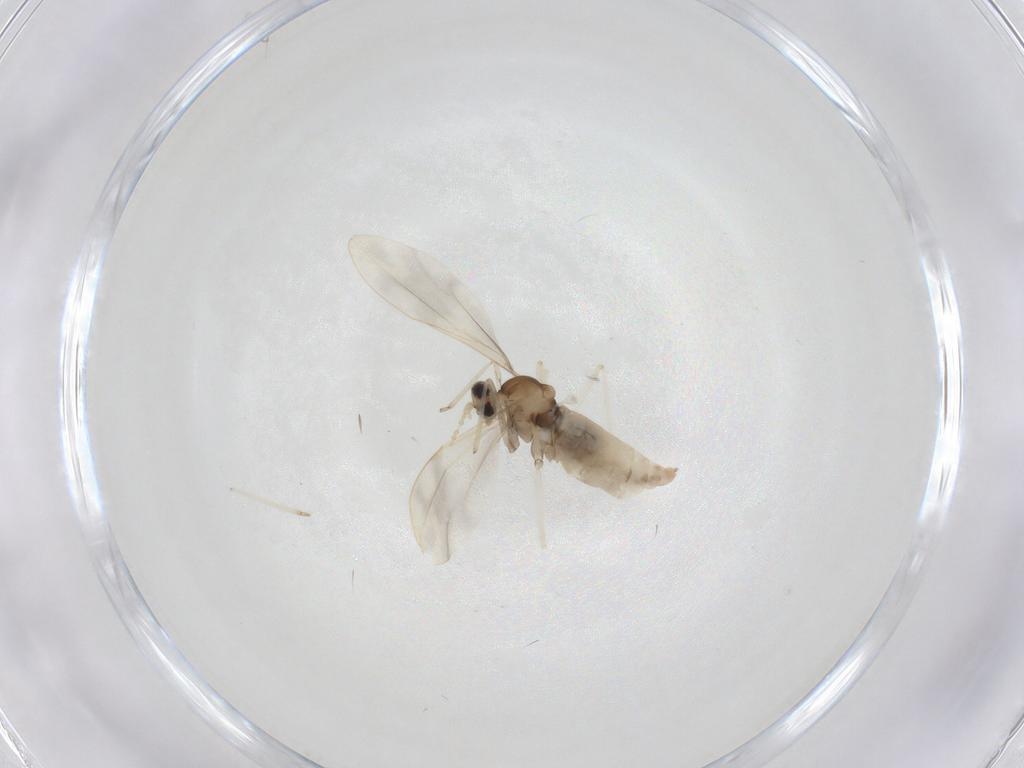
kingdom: Animalia
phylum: Arthropoda
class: Insecta
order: Diptera
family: Cecidomyiidae
